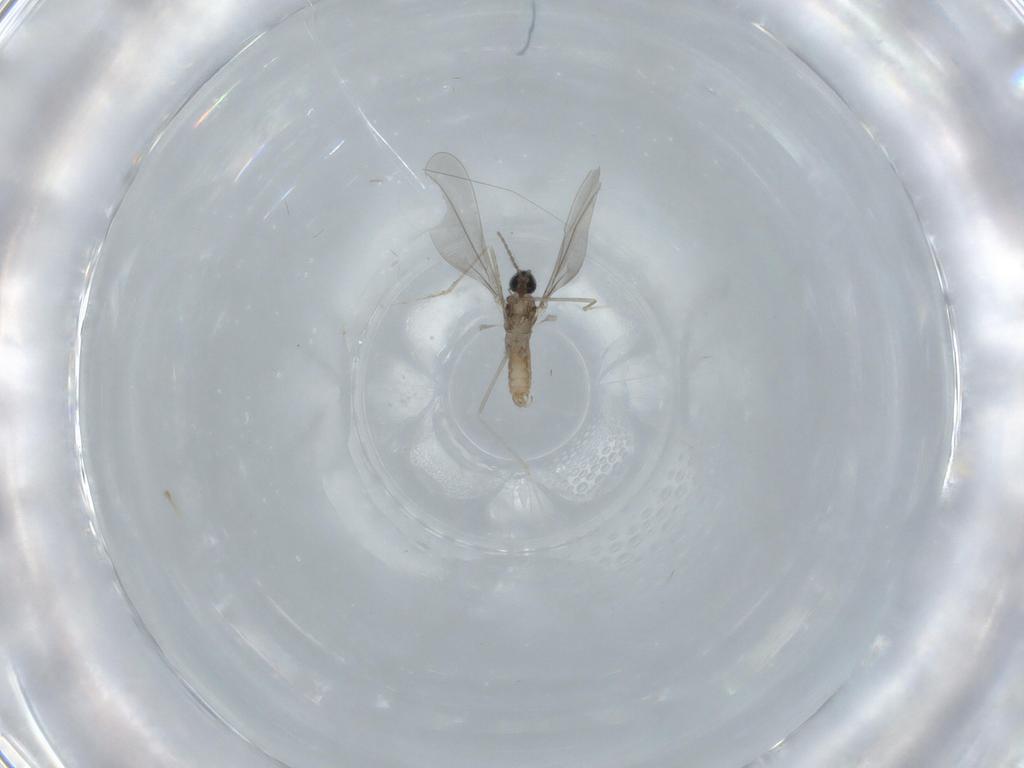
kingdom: Animalia
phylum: Arthropoda
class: Insecta
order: Diptera
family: Cecidomyiidae
